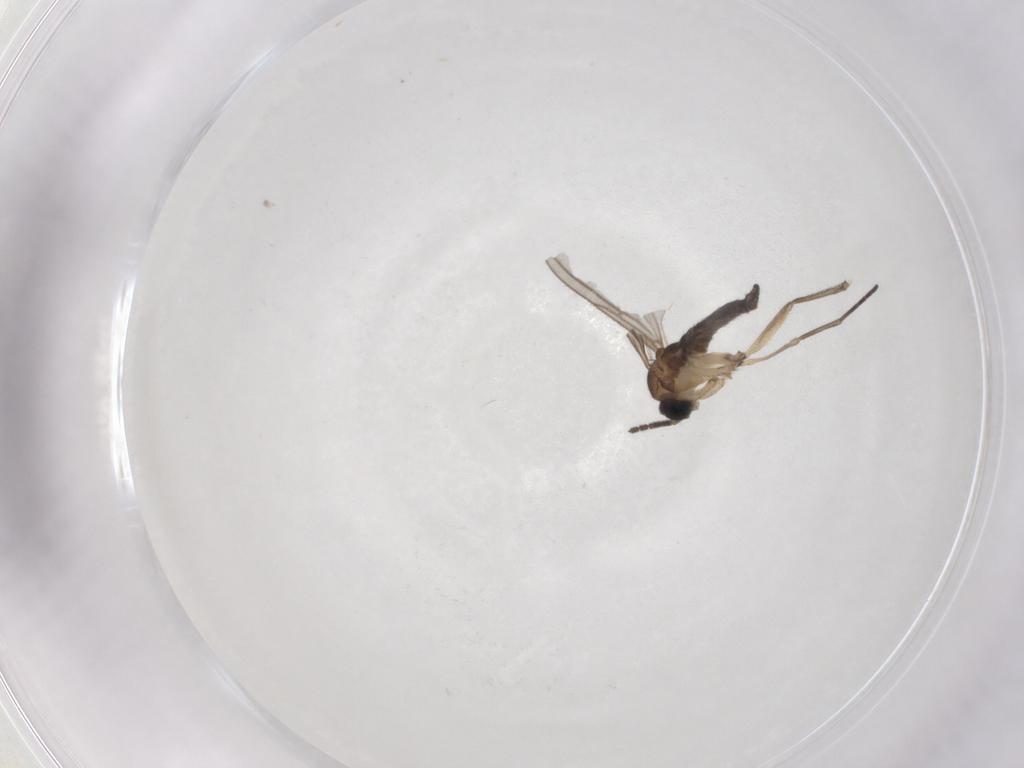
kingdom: Animalia
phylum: Arthropoda
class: Insecta
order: Diptera
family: Sciaridae
